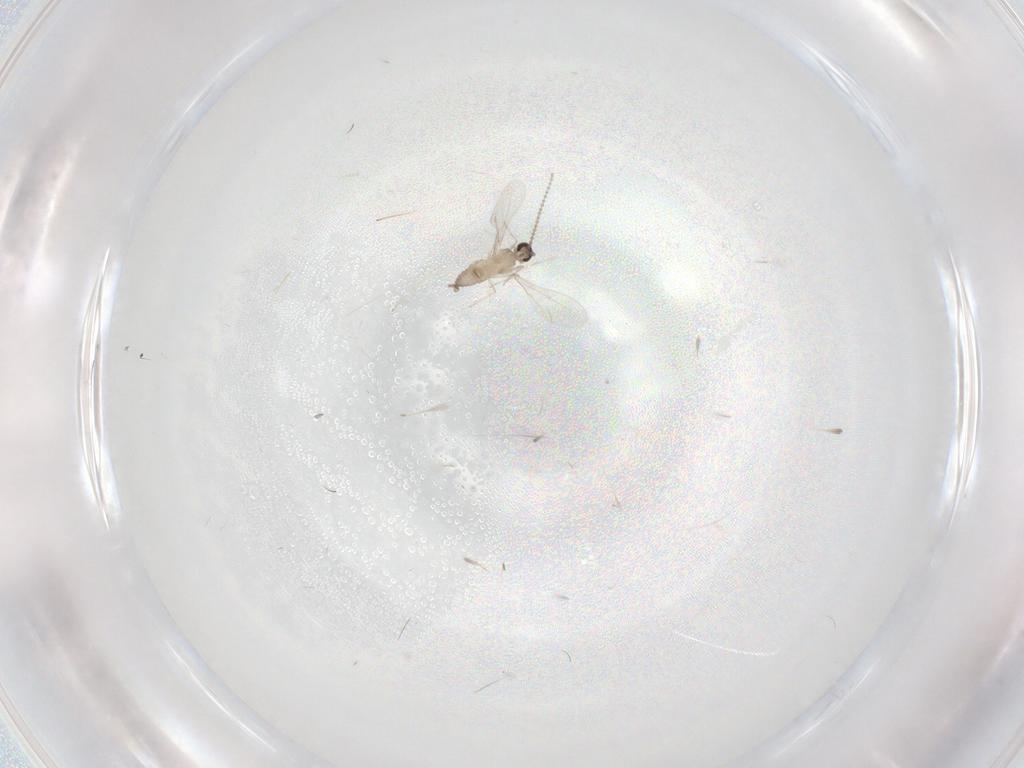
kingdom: Animalia
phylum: Arthropoda
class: Insecta
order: Diptera
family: Cecidomyiidae
